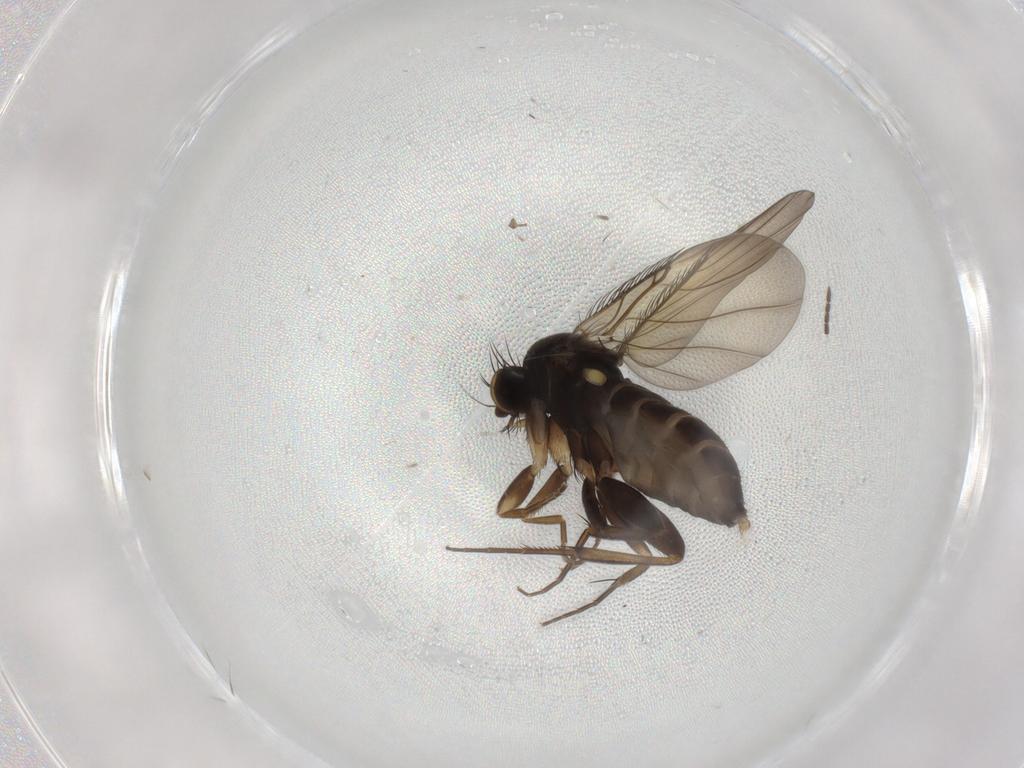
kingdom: Animalia
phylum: Arthropoda
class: Insecta
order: Diptera
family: Phoridae
